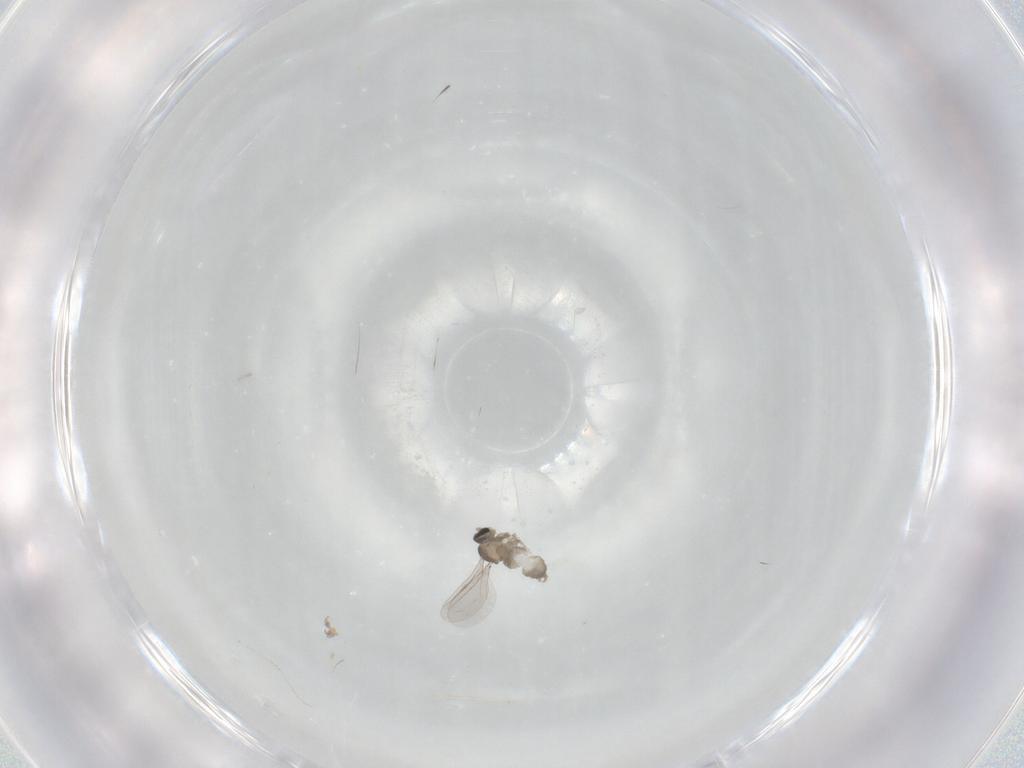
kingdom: Animalia
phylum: Arthropoda
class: Insecta
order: Diptera
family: Cecidomyiidae
